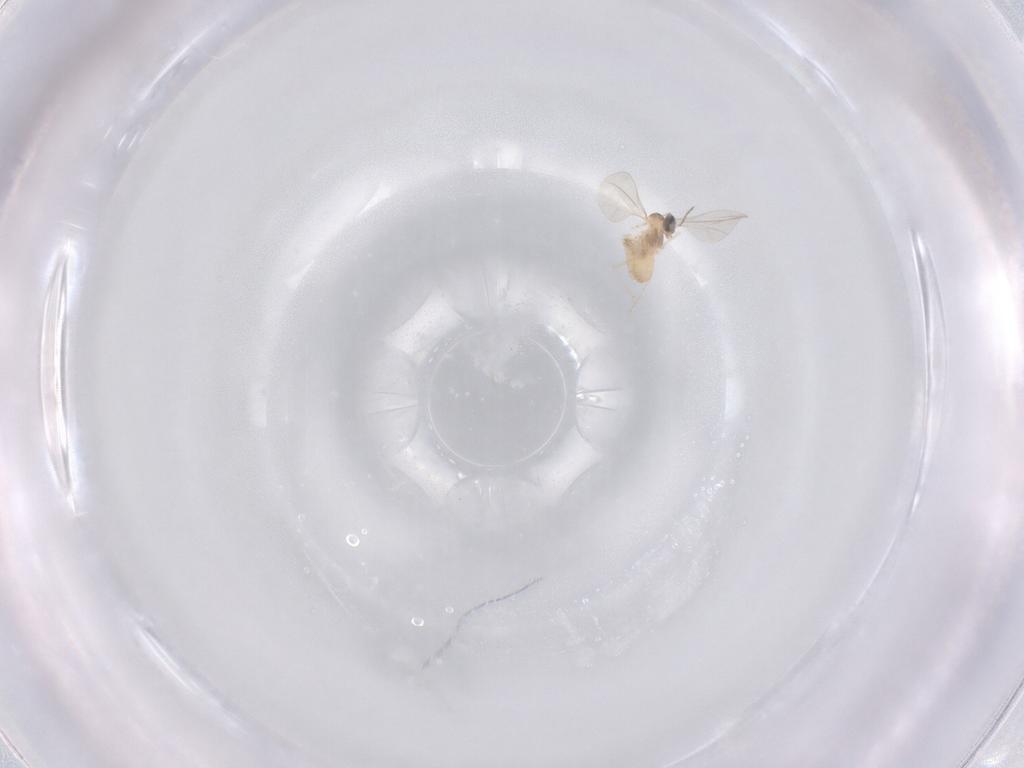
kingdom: Animalia
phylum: Arthropoda
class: Insecta
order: Diptera
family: Cecidomyiidae
